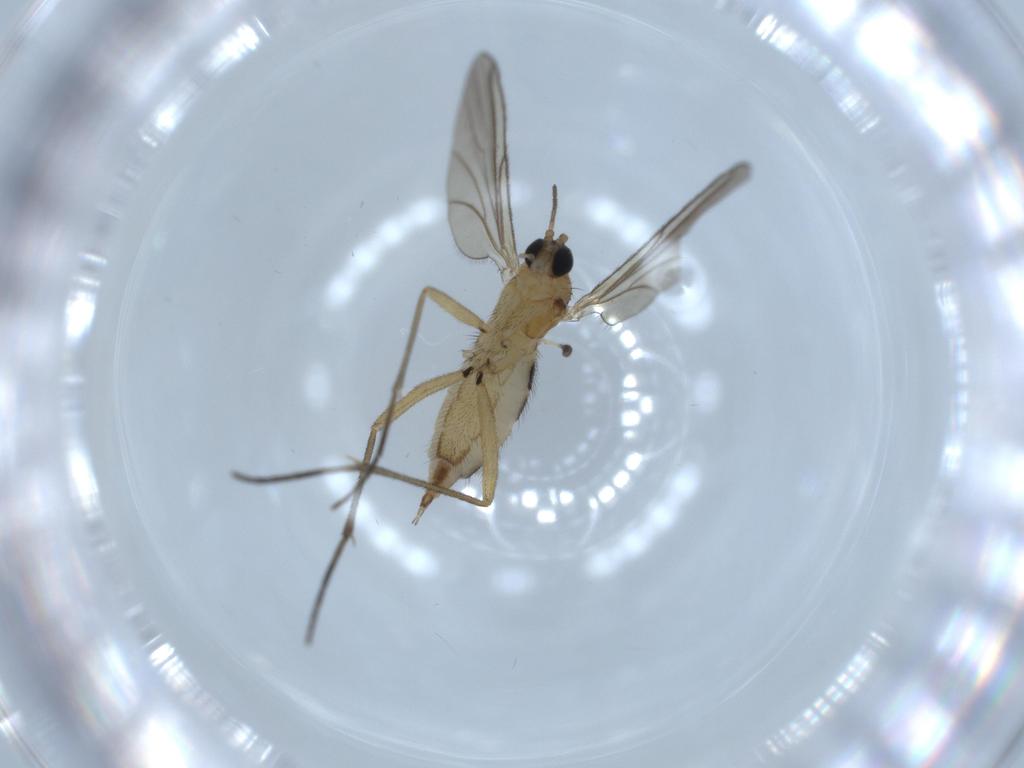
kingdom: Animalia
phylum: Arthropoda
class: Insecta
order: Diptera
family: Sciaridae
